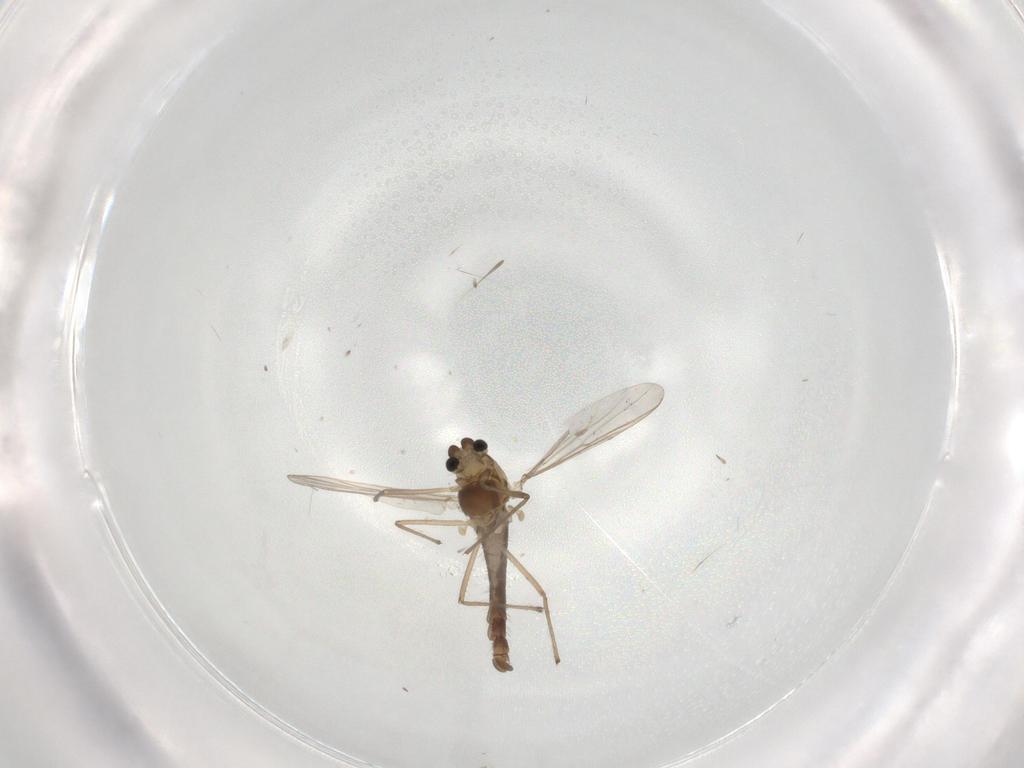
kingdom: Animalia
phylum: Arthropoda
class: Insecta
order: Diptera
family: Chironomidae
